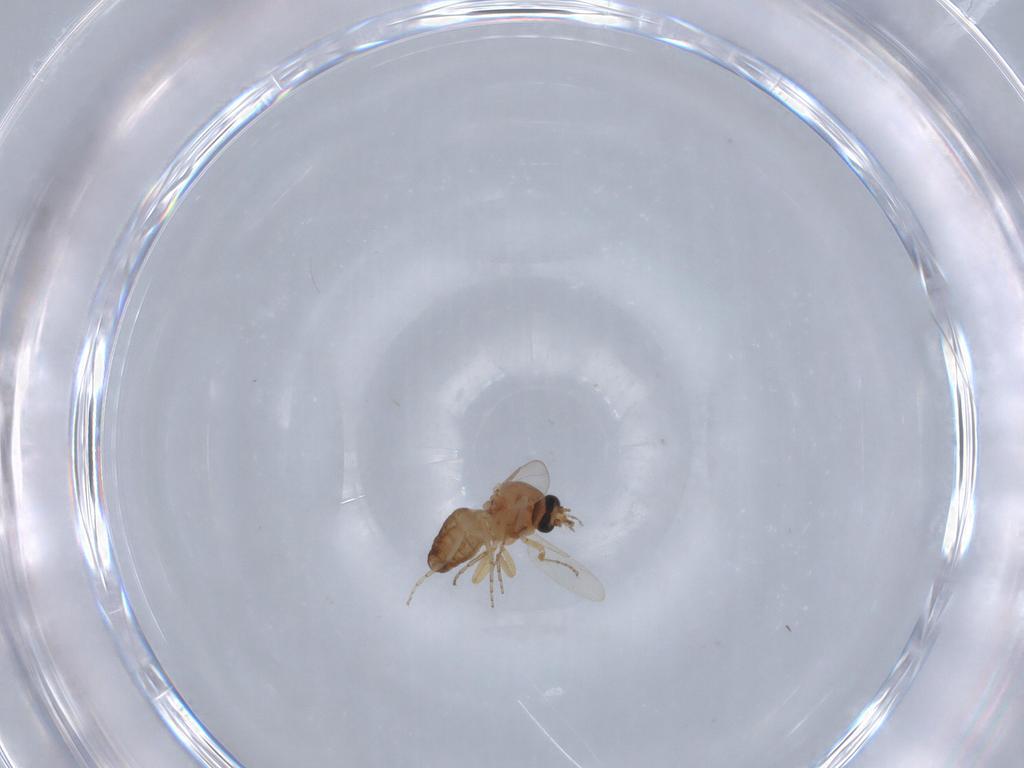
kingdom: Animalia
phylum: Arthropoda
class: Insecta
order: Diptera
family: Ceratopogonidae
